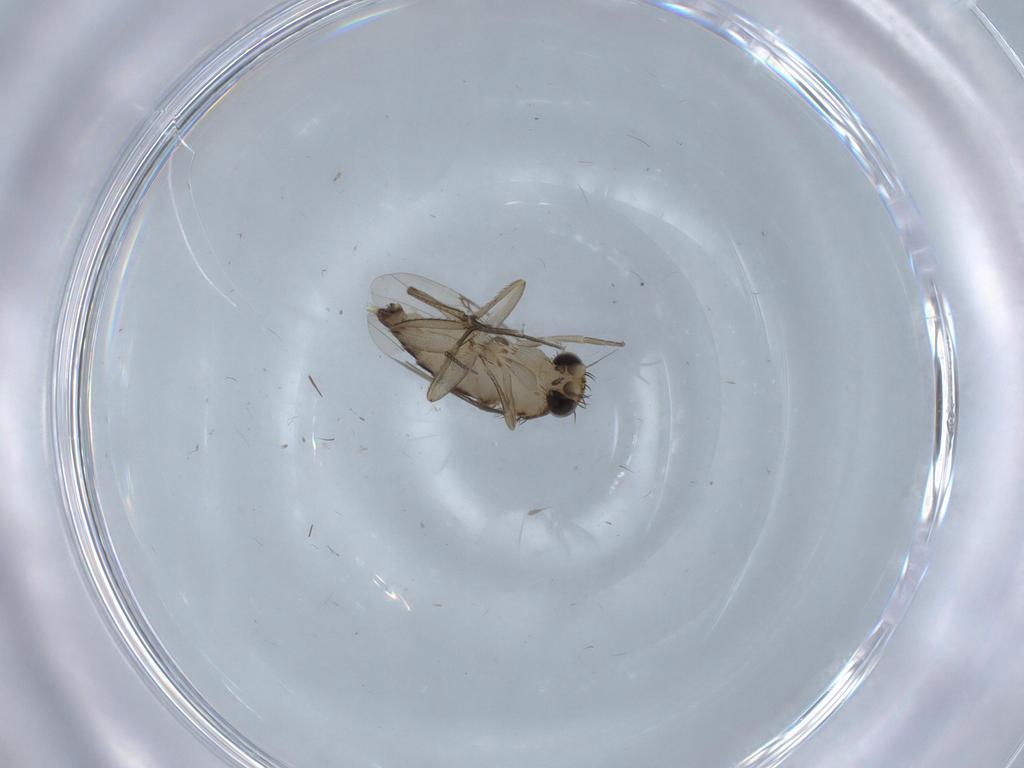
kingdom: Animalia
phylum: Arthropoda
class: Insecta
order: Diptera
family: Phoridae
